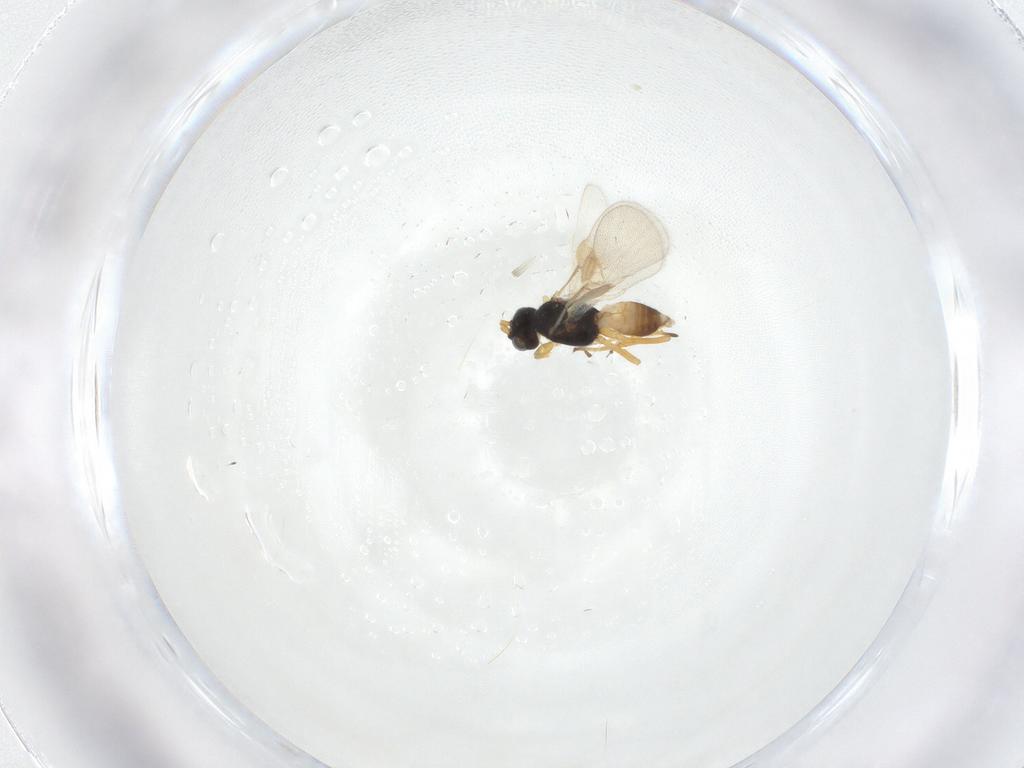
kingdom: Animalia
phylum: Arthropoda
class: Insecta
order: Hymenoptera
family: Braconidae
